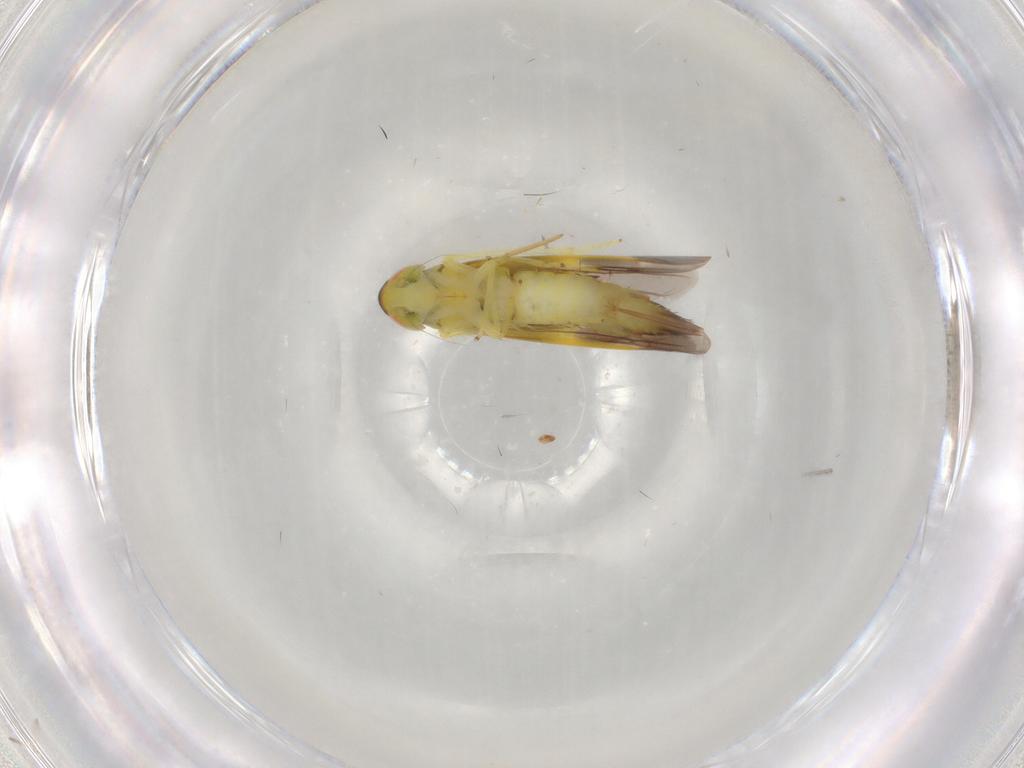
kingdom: Animalia
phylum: Arthropoda
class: Insecta
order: Hemiptera
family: Cicadellidae
